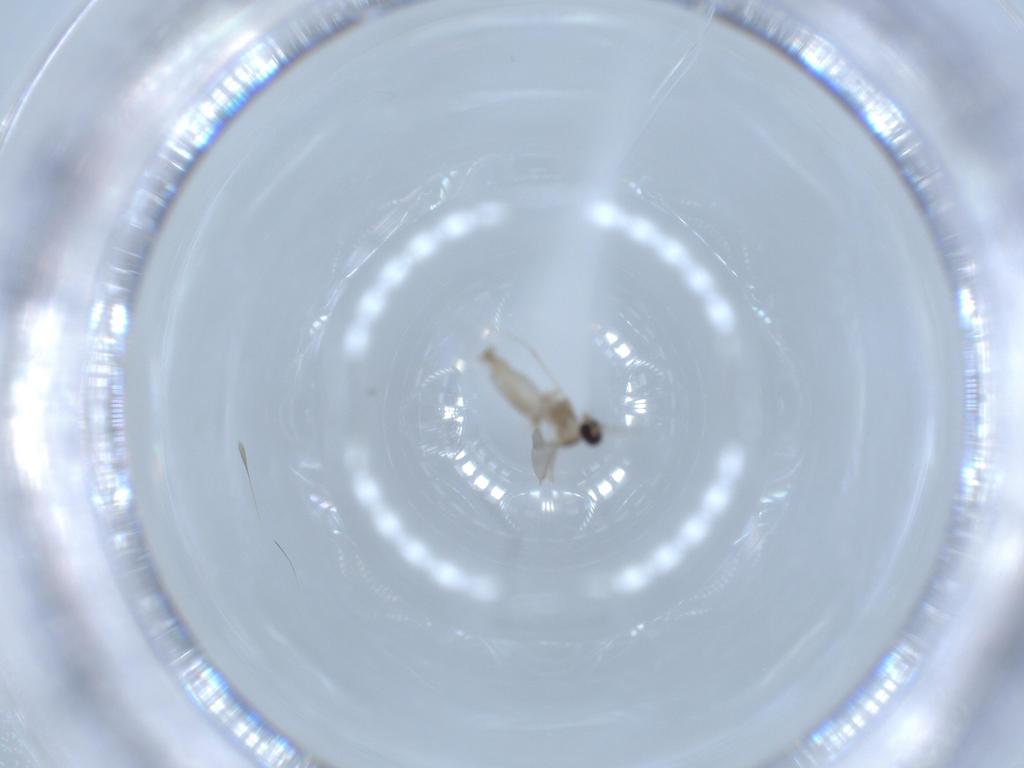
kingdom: Animalia
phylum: Arthropoda
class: Insecta
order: Diptera
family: Cecidomyiidae
